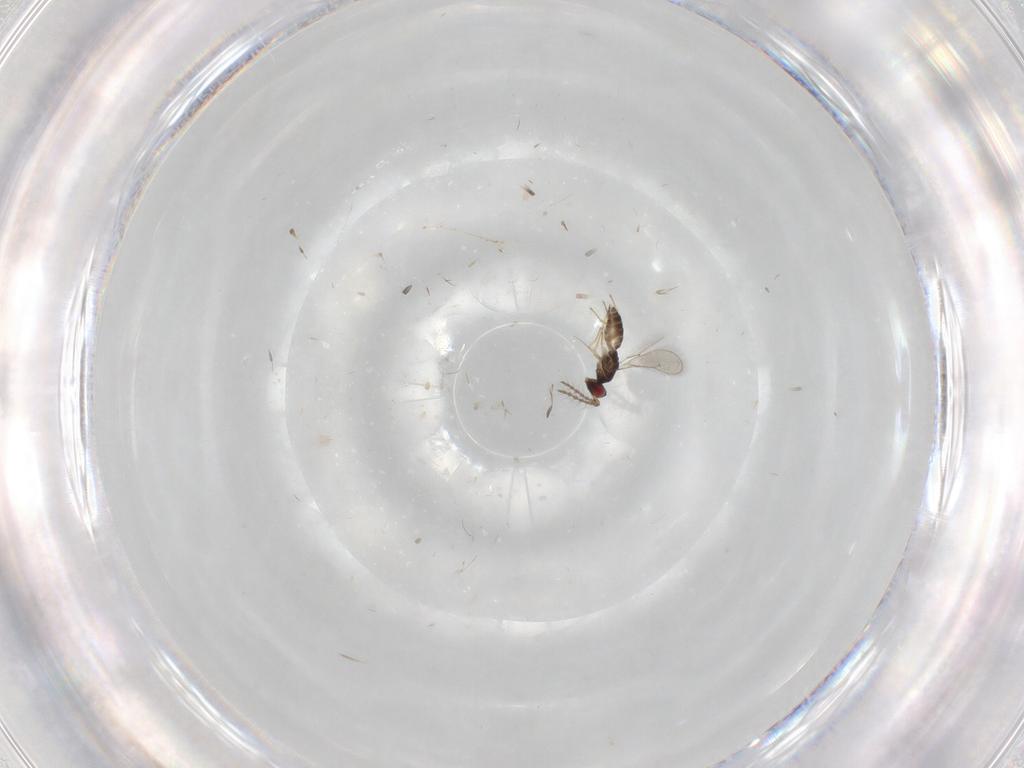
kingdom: Animalia
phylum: Arthropoda
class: Insecta
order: Hymenoptera
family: Eulophidae
